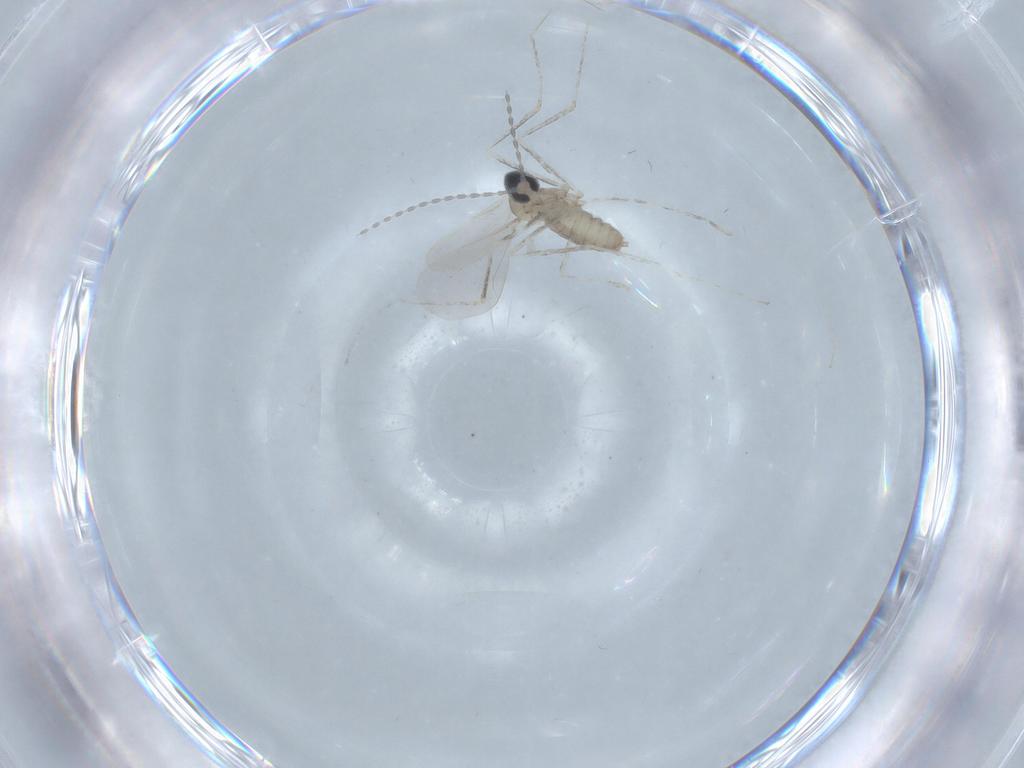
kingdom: Animalia
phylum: Arthropoda
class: Insecta
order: Diptera
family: Cecidomyiidae
